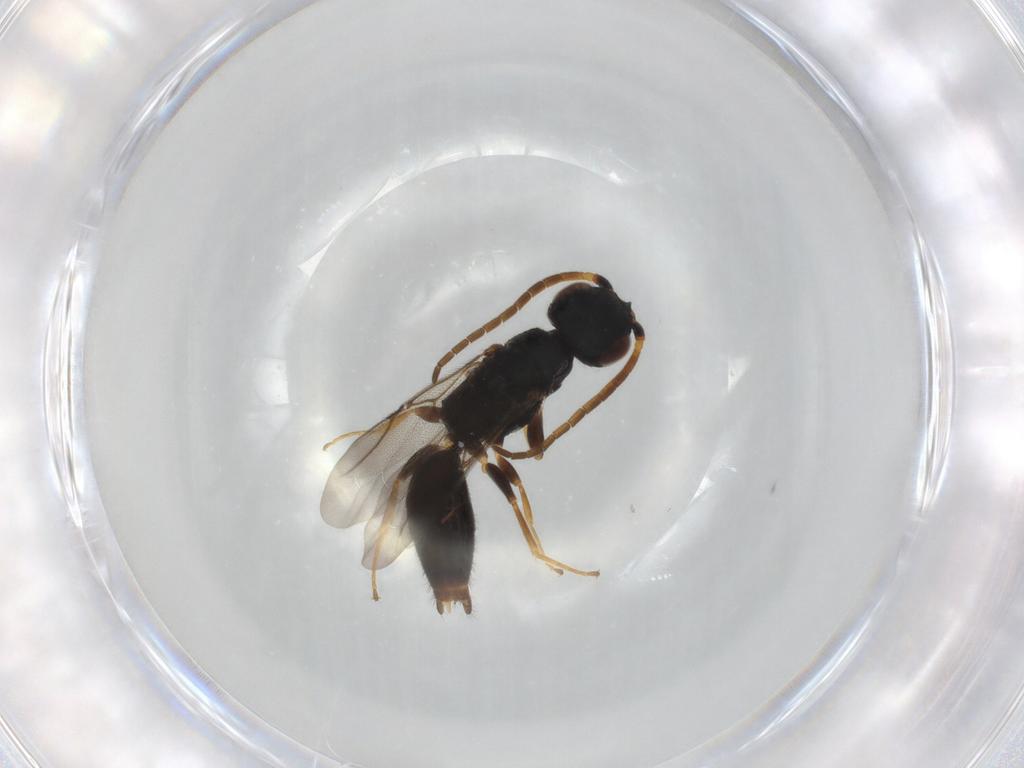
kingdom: Animalia
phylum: Arthropoda
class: Insecta
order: Hymenoptera
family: Bethylidae
